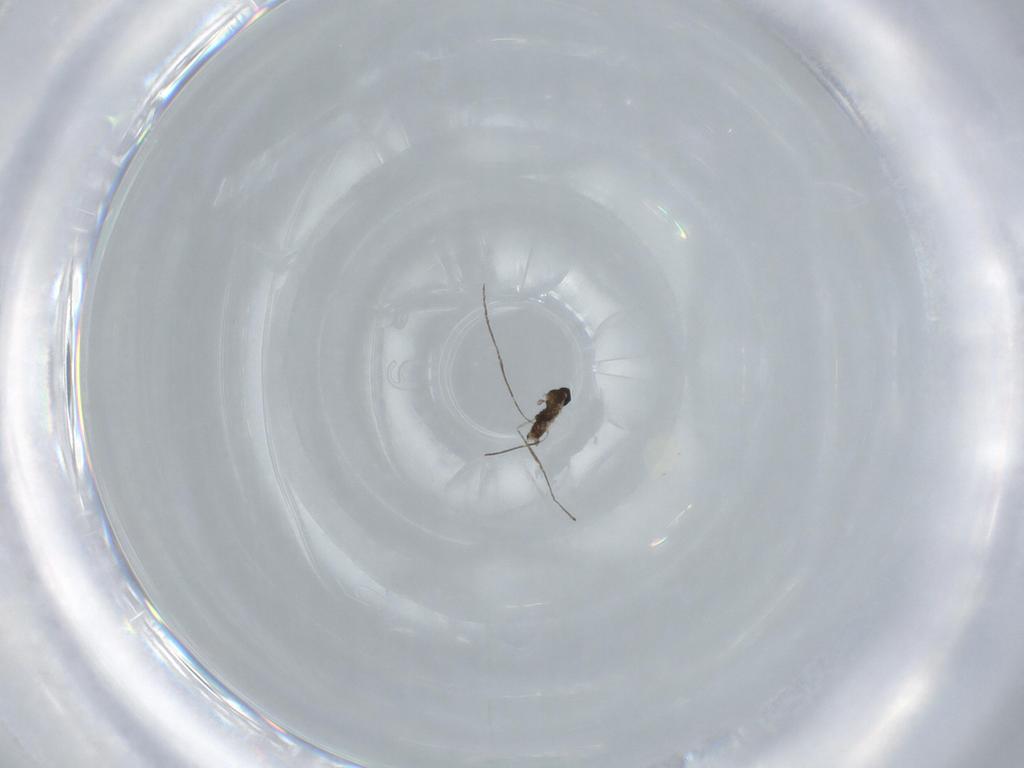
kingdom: Animalia
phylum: Arthropoda
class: Insecta
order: Diptera
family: Cecidomyiidae
